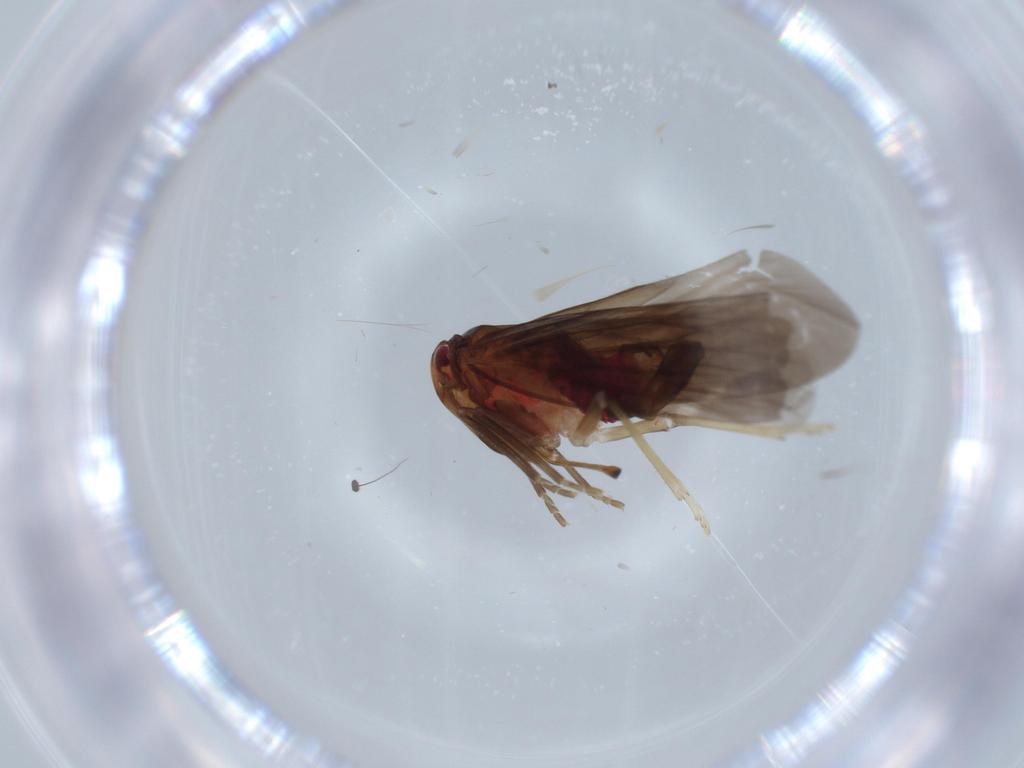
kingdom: Animalia
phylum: Arthropoda
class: Insecta
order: Hemiptera
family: Derbidae
